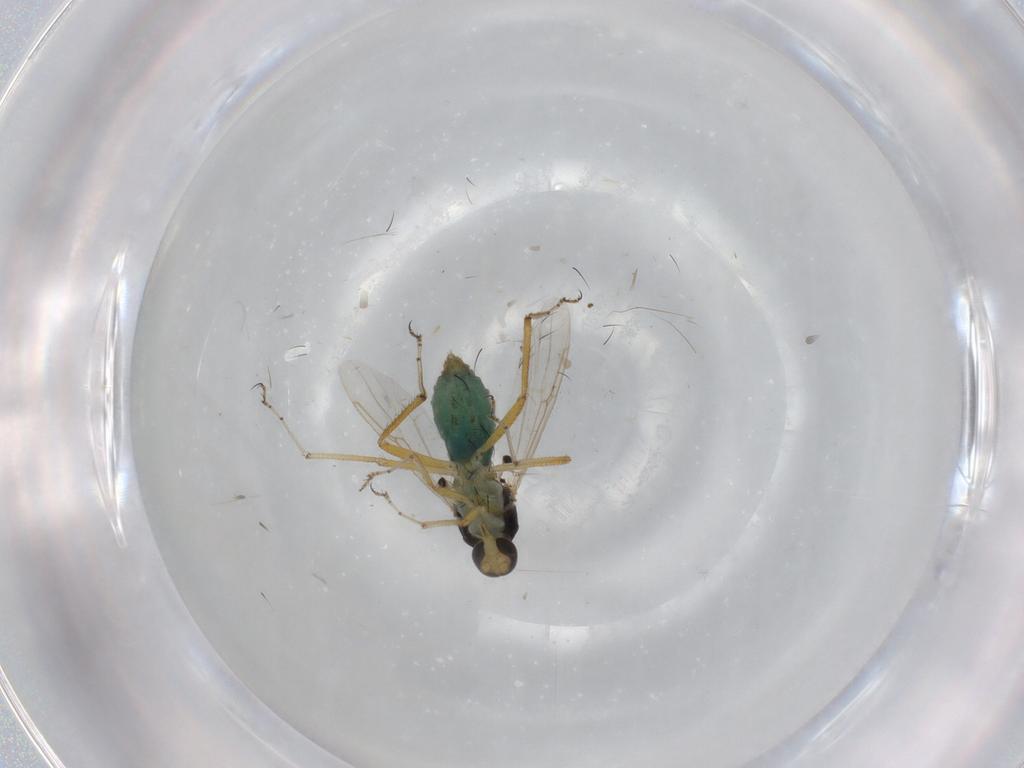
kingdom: Animalia
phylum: Arthropoda
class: Insecta
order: Diptera
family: Ceratopogonidae
